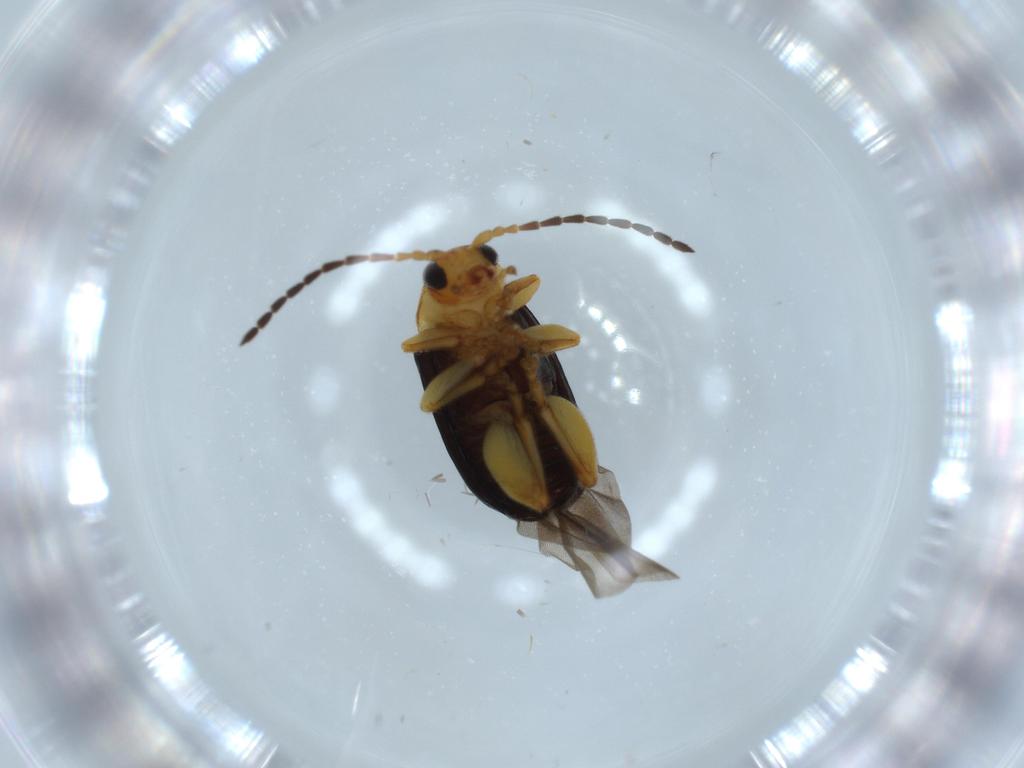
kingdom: Animalia
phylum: Arthropoda
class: Insecta
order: Coleoptera
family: Chrysomelidae
